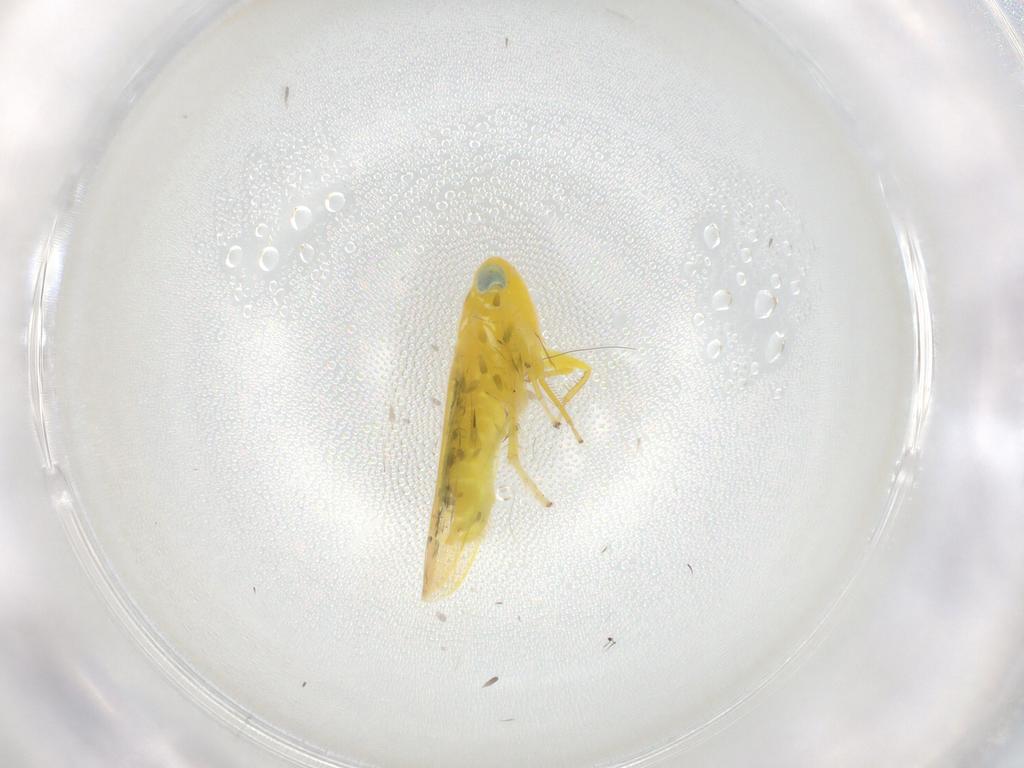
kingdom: Animalia
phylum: Arthropoda
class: Insecta
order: Hemiptera
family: Cicadellidae
